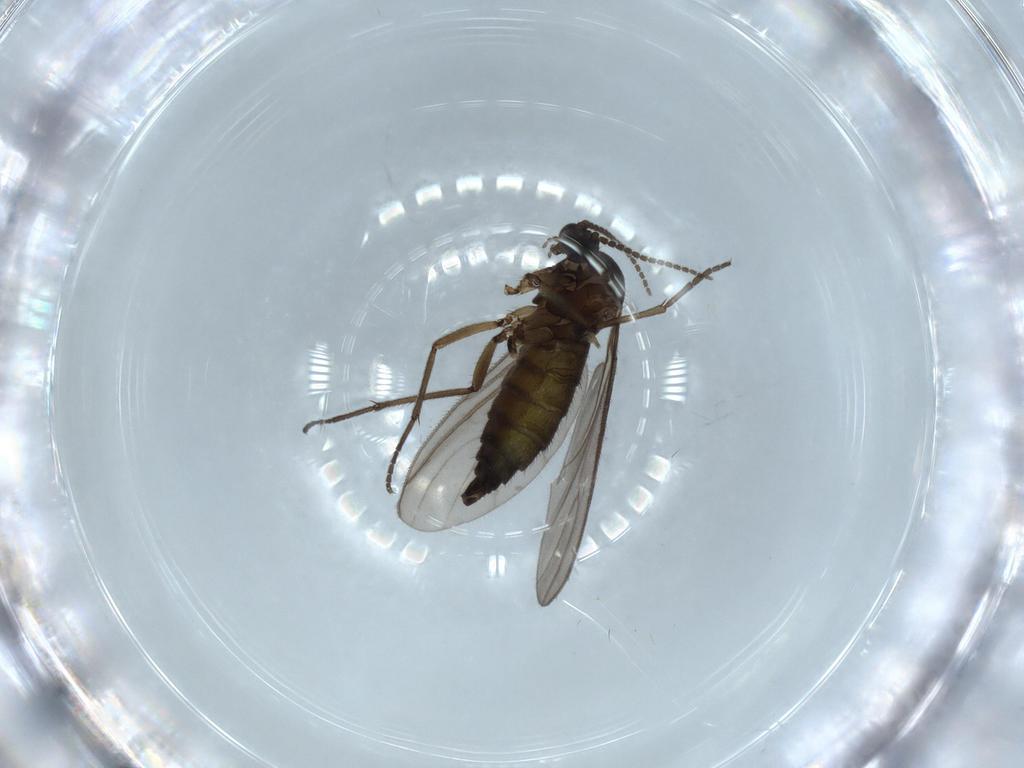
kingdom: Animalia
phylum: Arthropoda
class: Insecta
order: Diptera
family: Sciaridae
